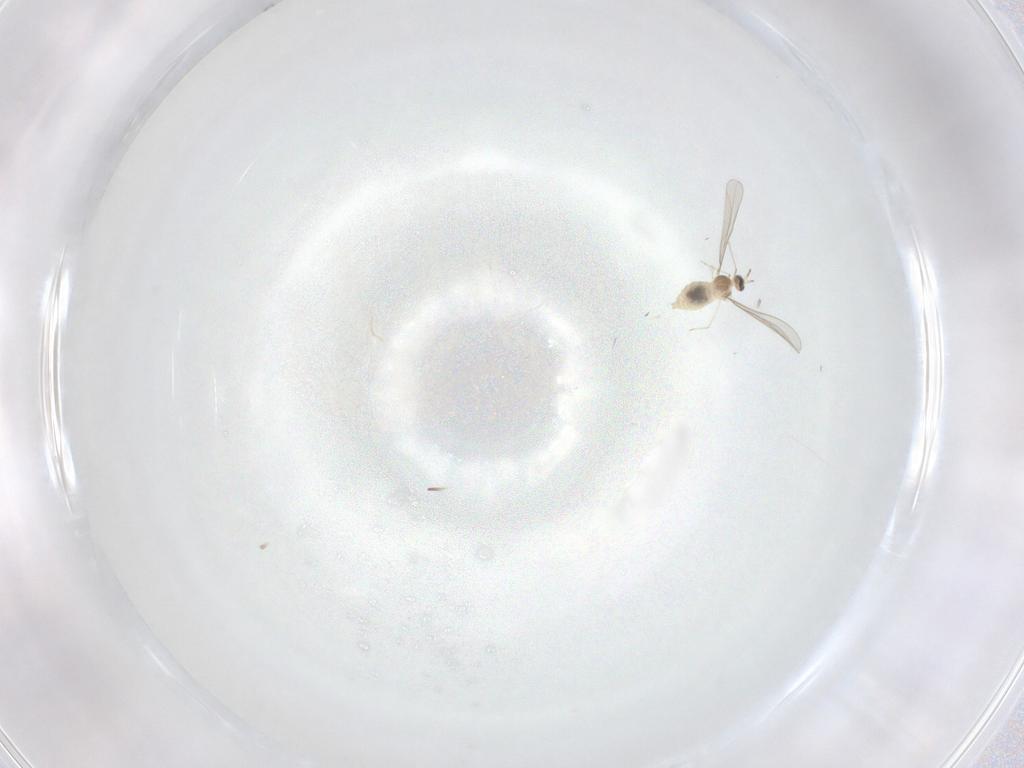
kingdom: Animalia
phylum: Arthropoda
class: Insecta
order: Diptera
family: Cecidomyiidae
